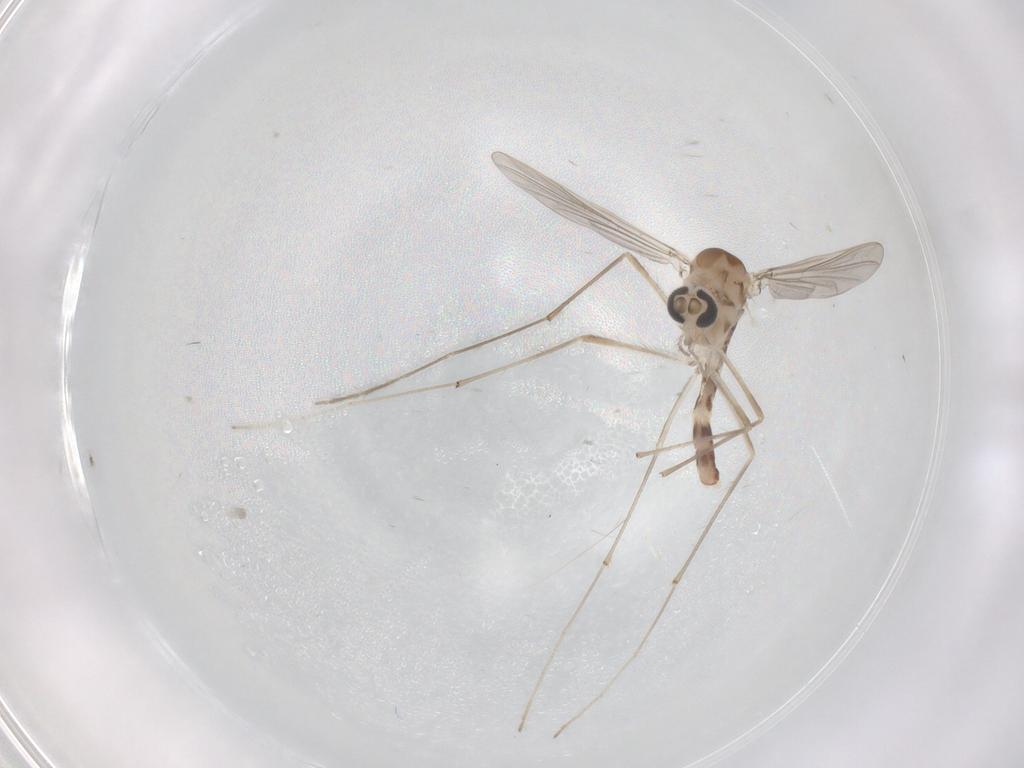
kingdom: Animalia
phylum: Arthropoda
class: Insecta
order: Diptera
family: Chironomidae
